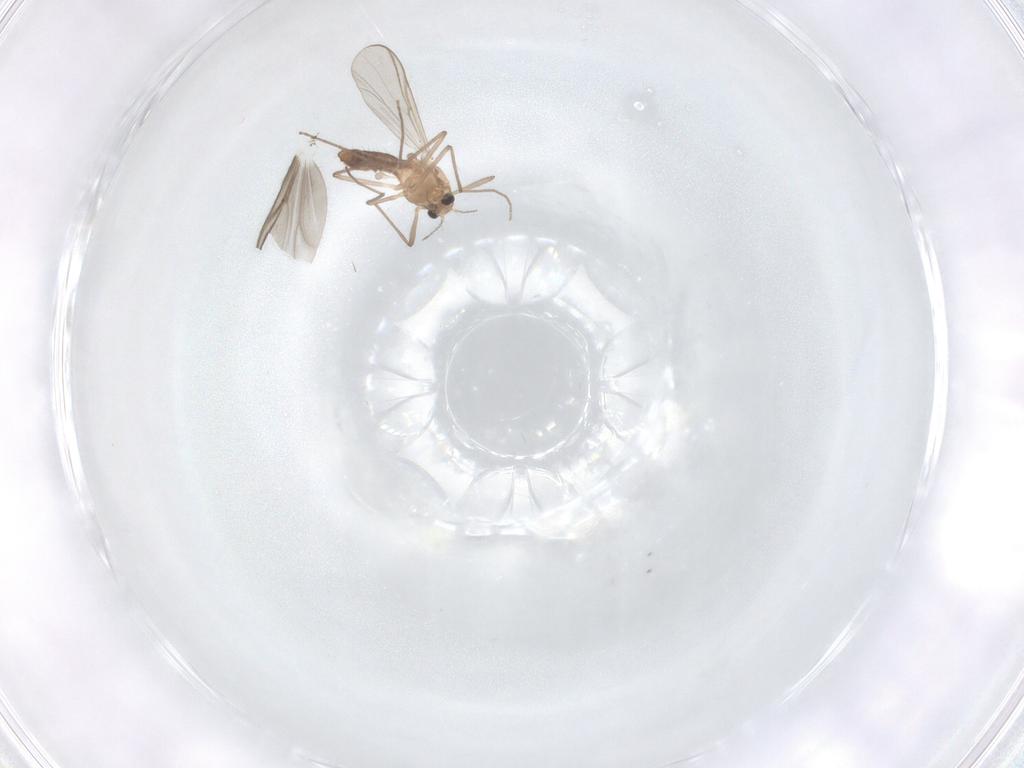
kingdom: Animalia
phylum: Arthropoda
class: Insecta
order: Diptera
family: Chironomidae
